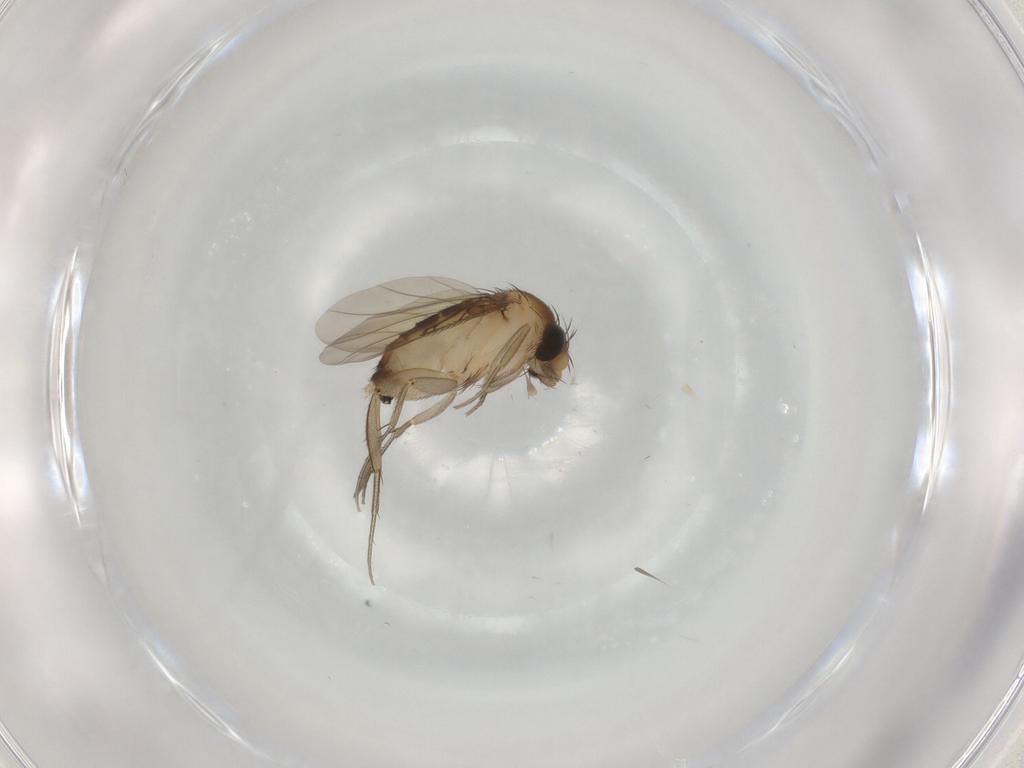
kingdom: Animalia
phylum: Arthropoda
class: Insecta
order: Diptera
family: Cecidomyiidae
